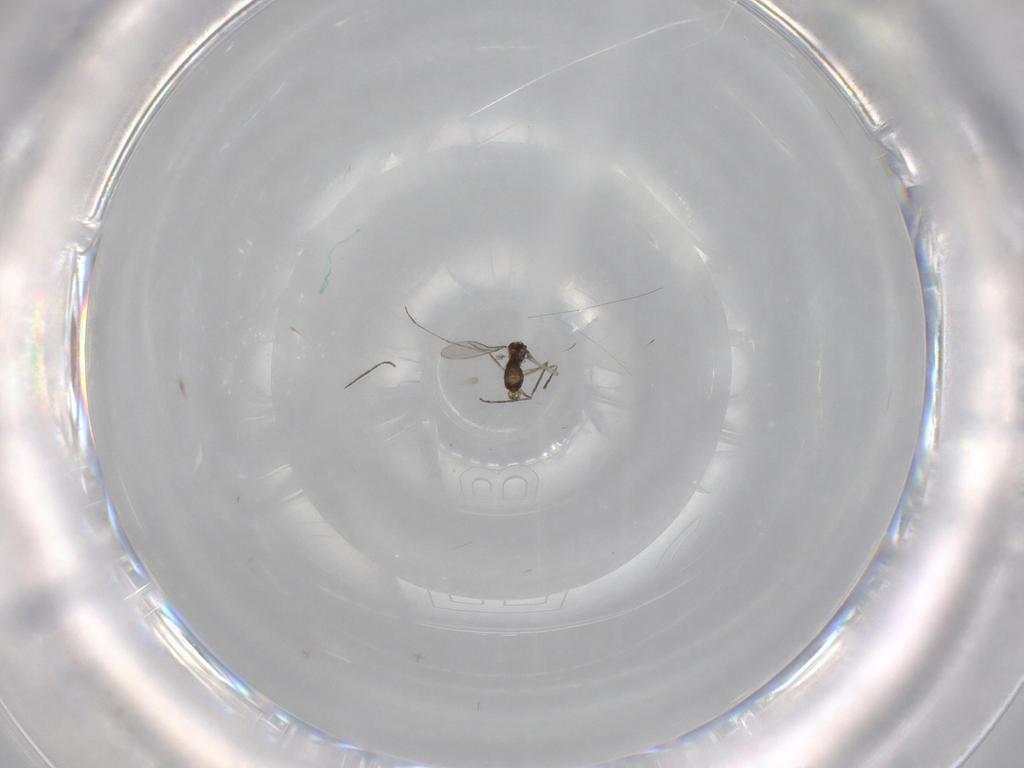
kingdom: Animalia
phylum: Arthropoda
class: Insecta
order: Diptera
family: Cecidomyiidae
